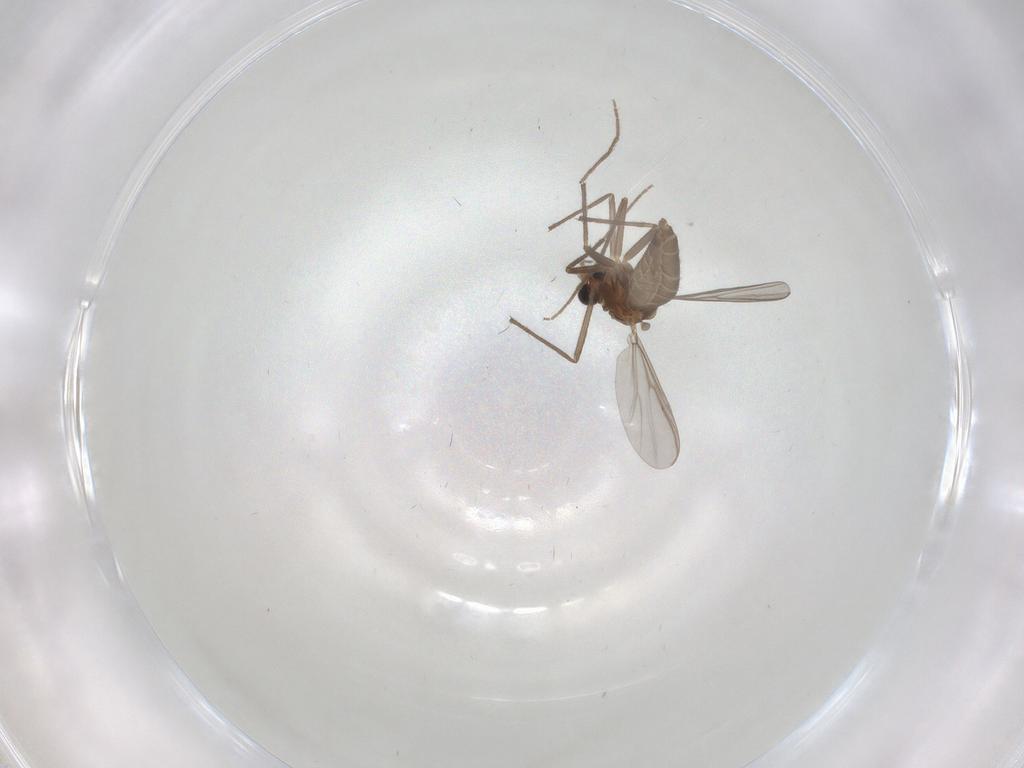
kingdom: Animalia
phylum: Arthropoda
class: Insecta
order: Diptera
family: Chironomidae
